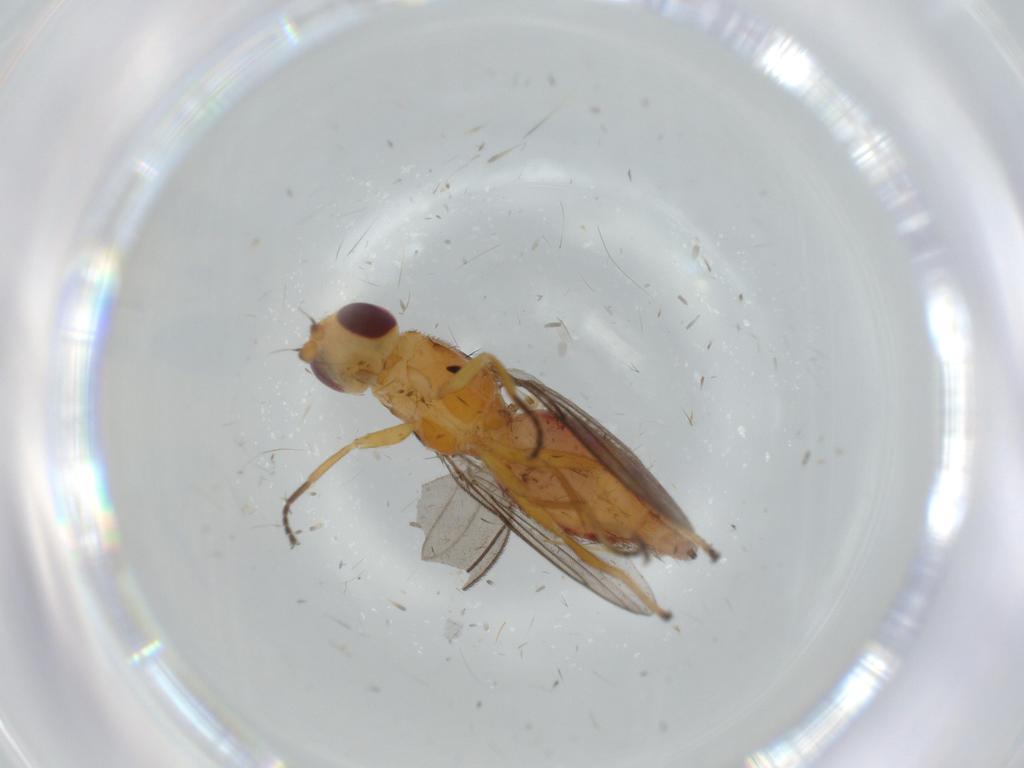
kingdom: Animalia
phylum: Arthropoda
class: Insecta
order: Diptera
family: Chloropidae
